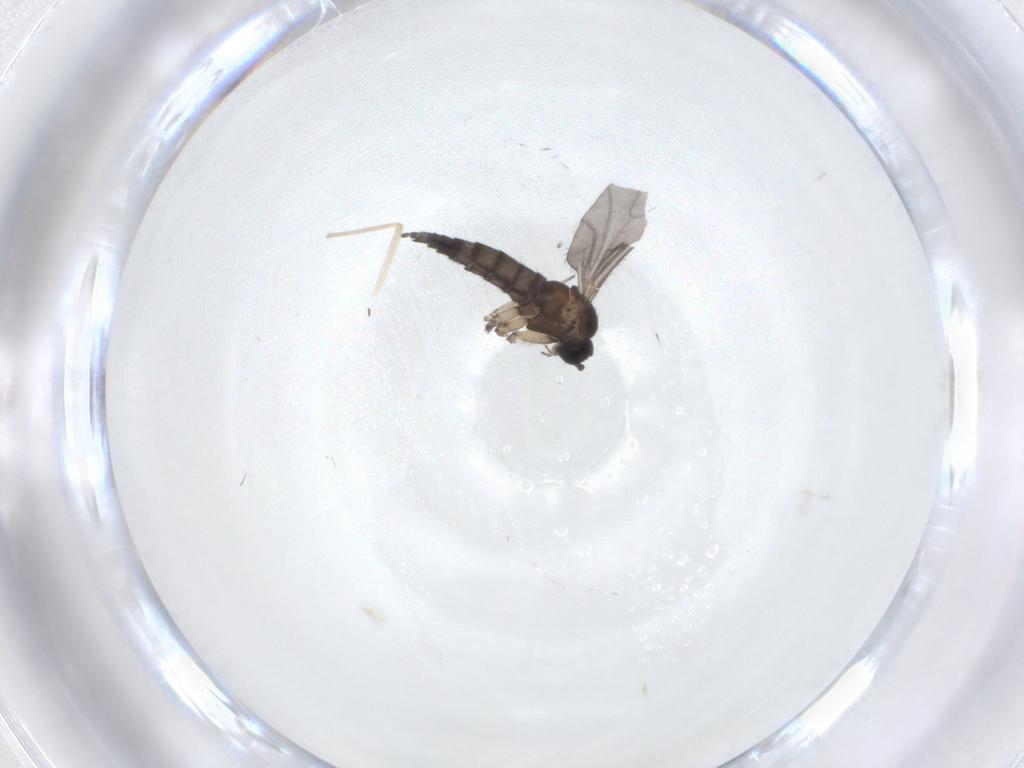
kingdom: Animalia
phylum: Arthropoda
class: Insecta
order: Diptera
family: Sciaridae
